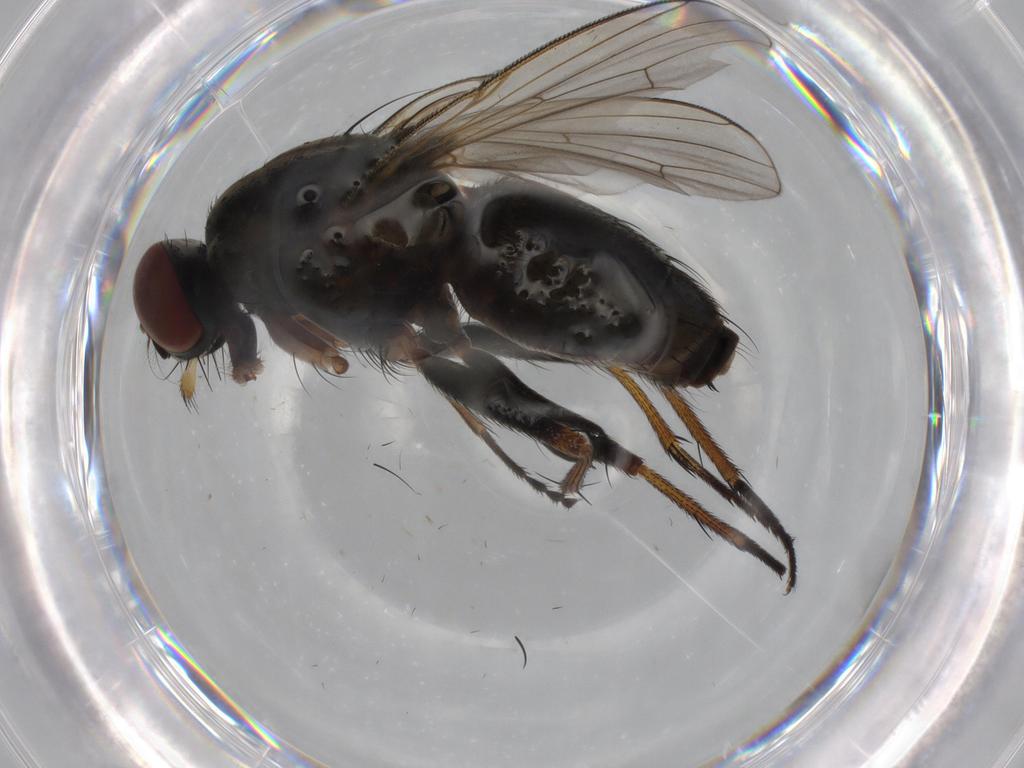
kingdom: Animalia
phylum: Arthropoda
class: Insecta
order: Diptera
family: Muscidae
